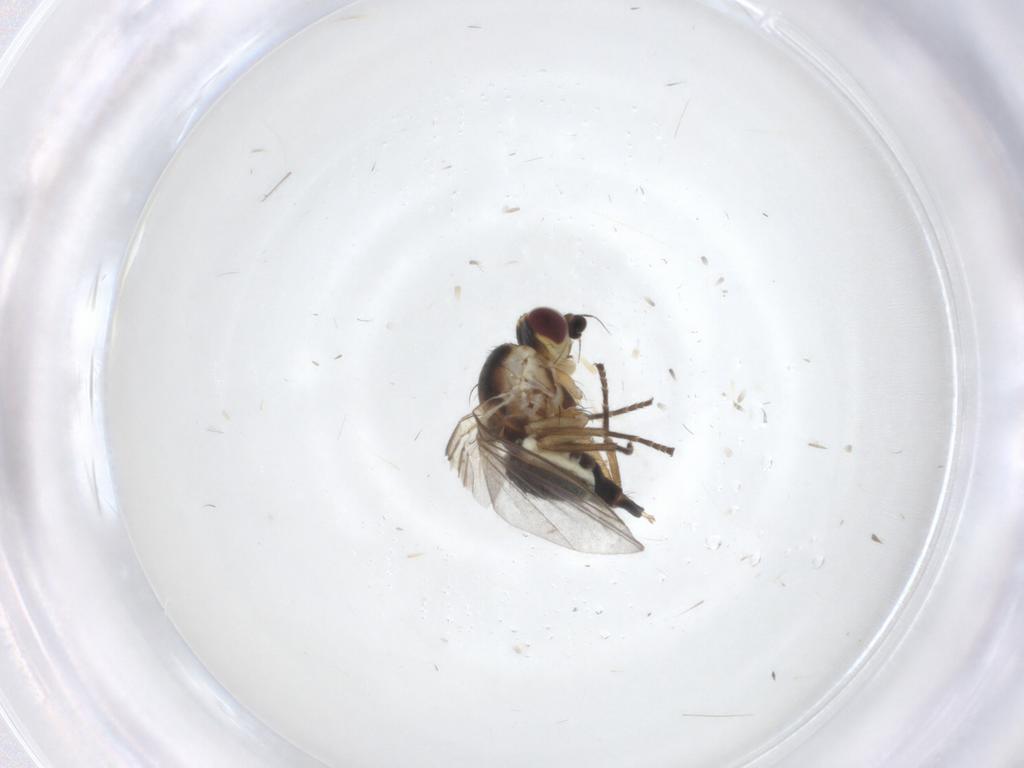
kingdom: Animalia
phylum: Arthropoda
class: Insecta
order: Diptera
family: Agromyzidae
